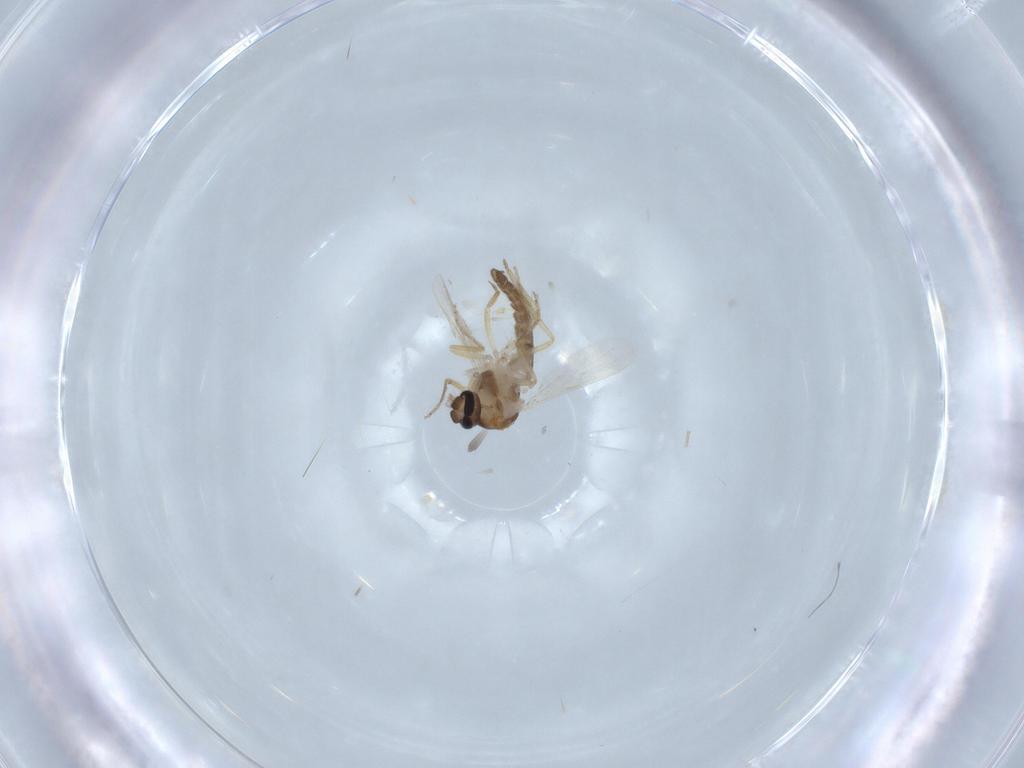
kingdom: Animalia
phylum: Arthropoda
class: Insecta
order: Diptera
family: Ceratopogonidae
